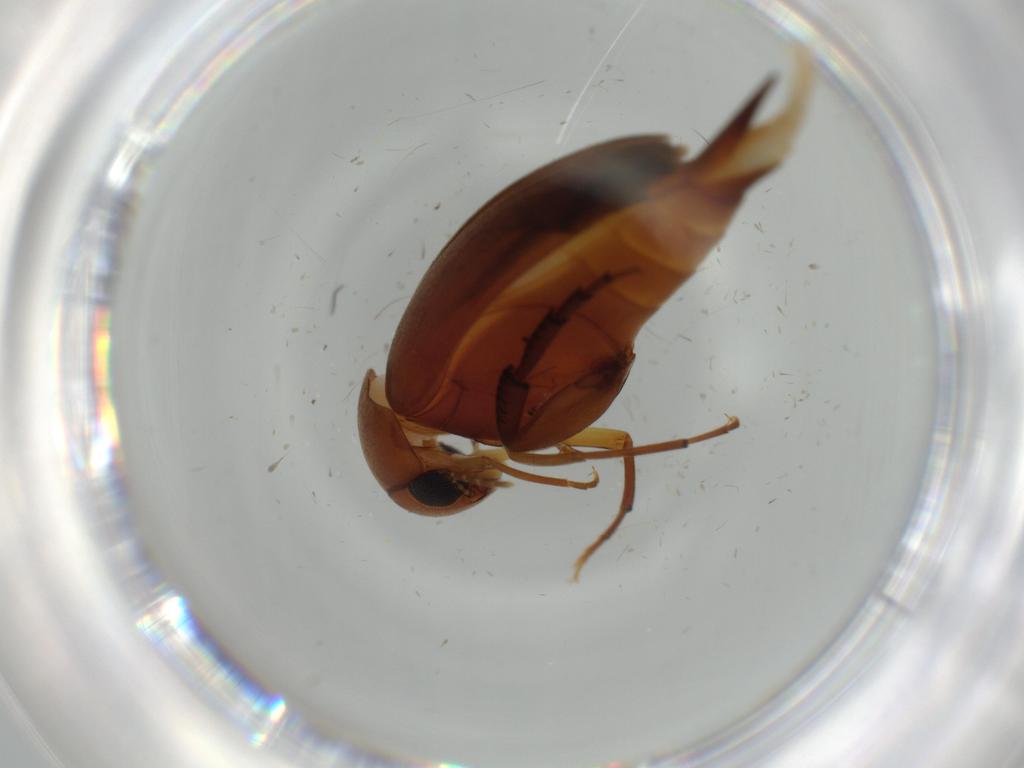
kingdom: Animalia
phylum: Arthropoda
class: Insecta
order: Coleoptera
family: Mordellidae
